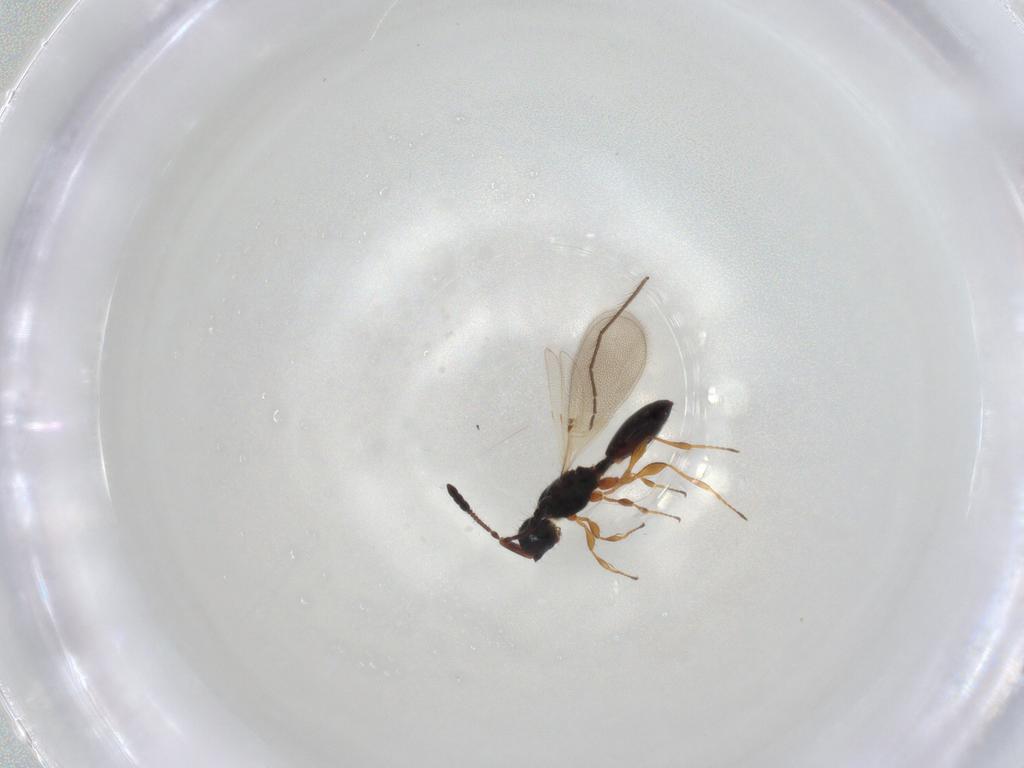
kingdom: Animalia
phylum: Arthropoda
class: Insecta
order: Hymenoptera
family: Diapriidae
